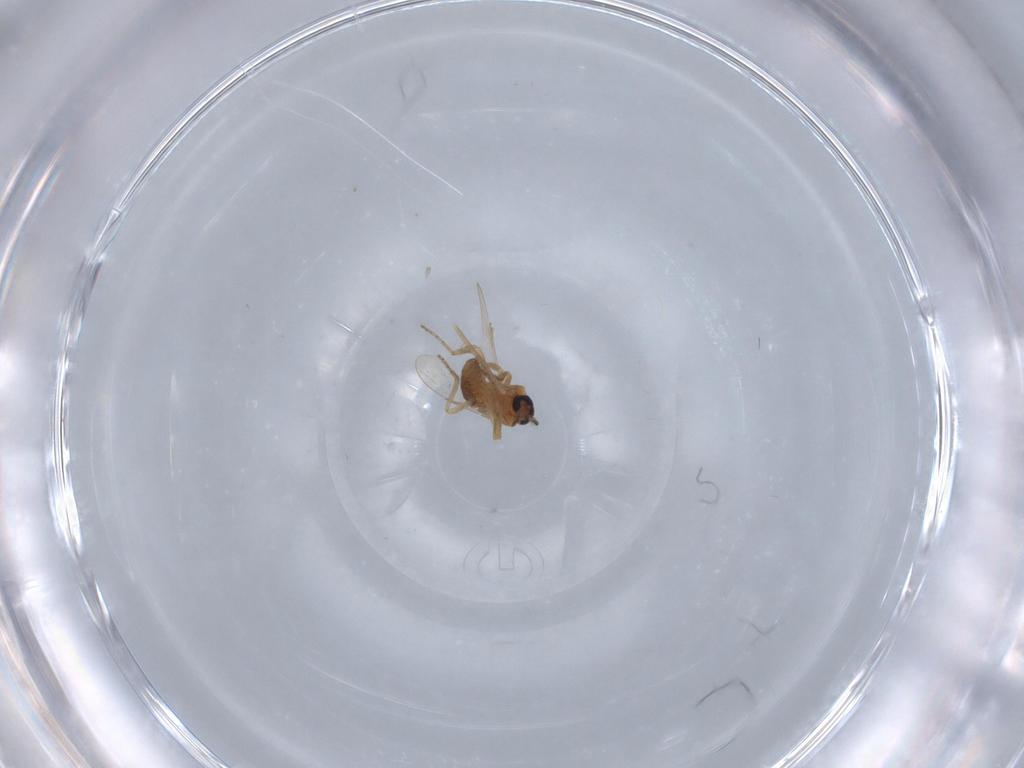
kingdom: Animalia
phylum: Arthropoda
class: Insecta
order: Diptera
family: Ceratopogonidae
